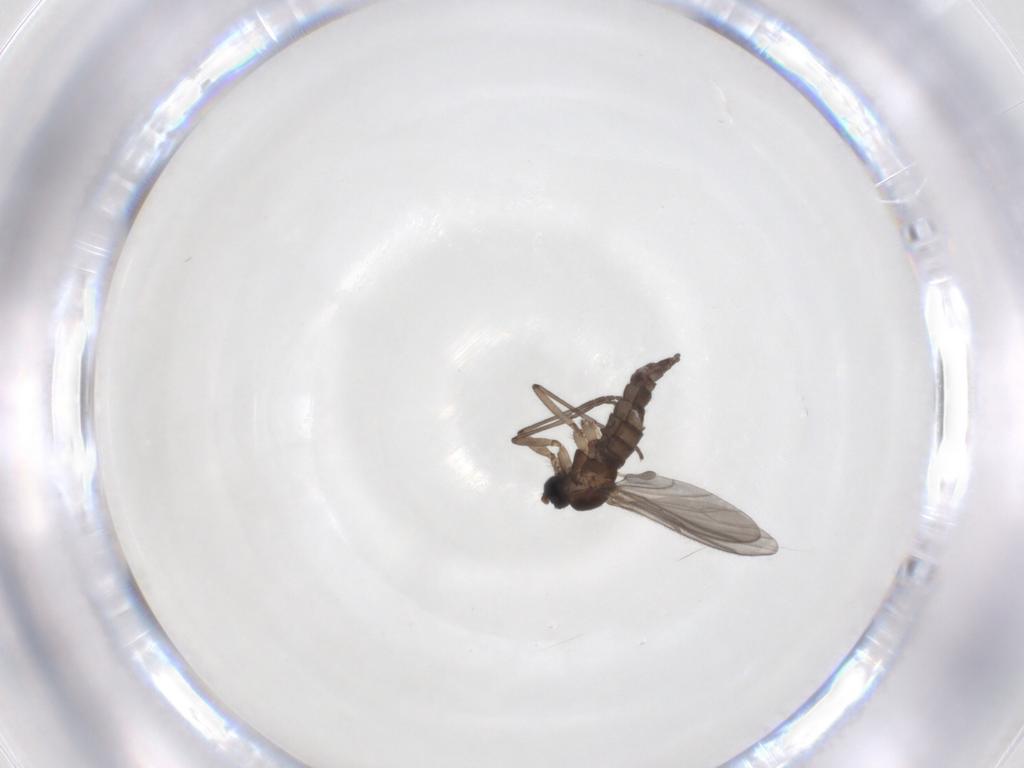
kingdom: Animalia
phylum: Arthropoda
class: Insecta
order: Diptera
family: Sciaridae
